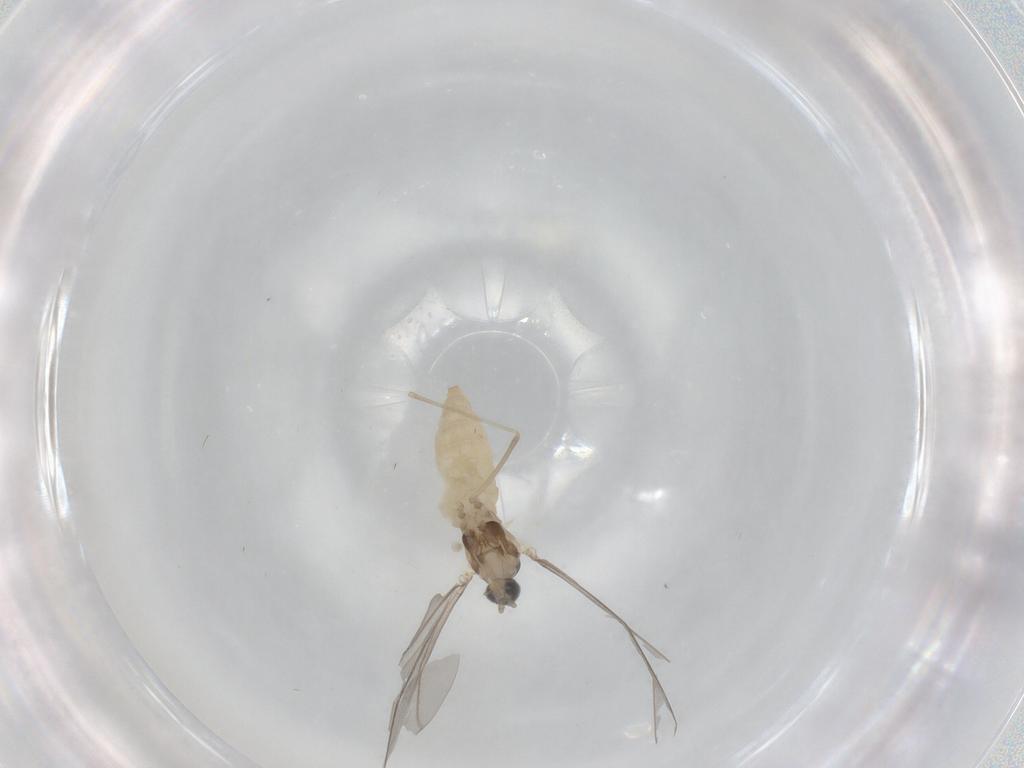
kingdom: Animalia
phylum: Arthropoda
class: Insecta
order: Diptera
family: Cecidomyiidae
